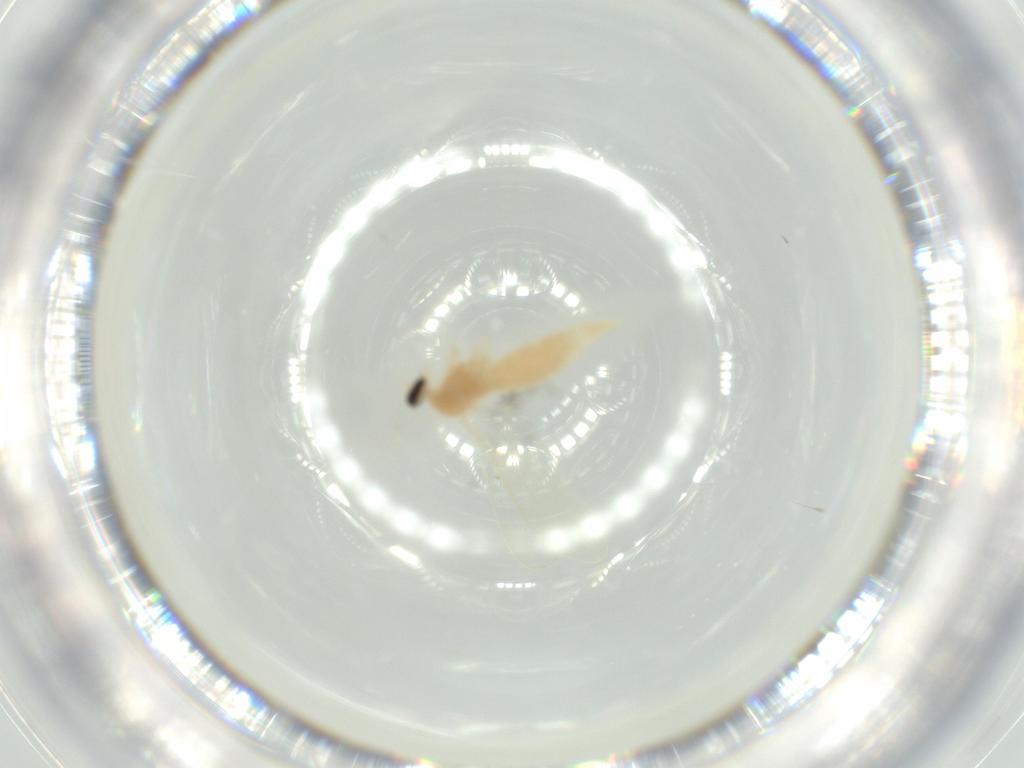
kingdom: Animalia
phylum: Arthropoda
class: Insecta
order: Diptera
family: Cecidomyiidae
